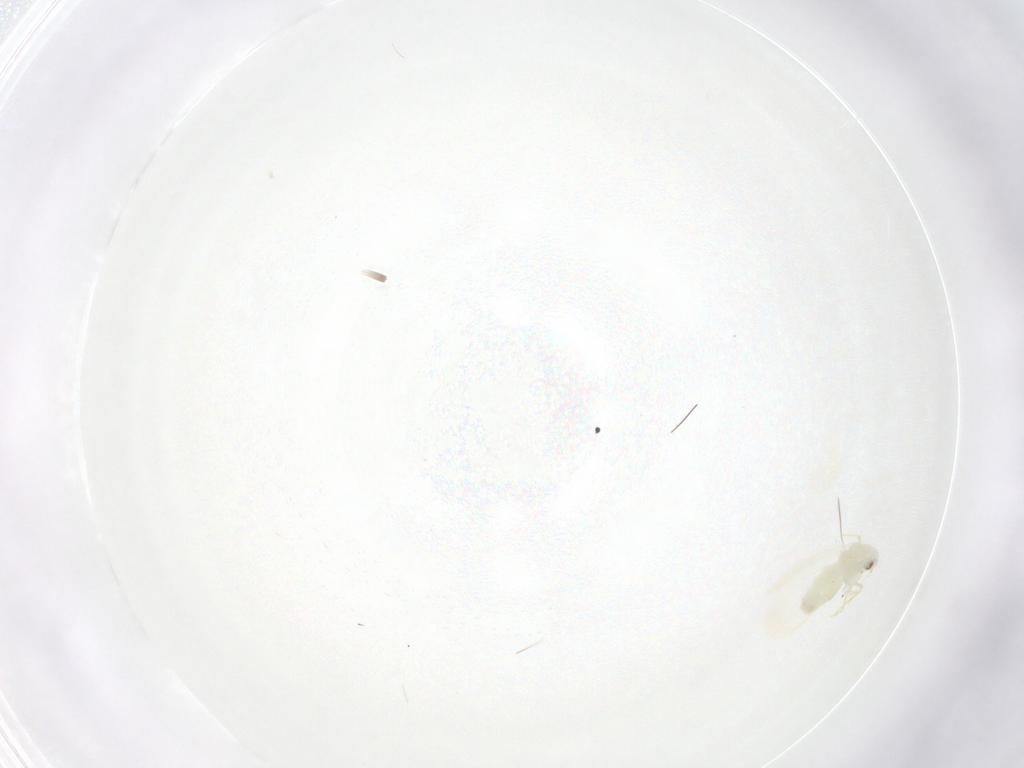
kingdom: Animalia
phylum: Arthropoda
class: Insecta
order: Hemiptera
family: Aleyrodidae
